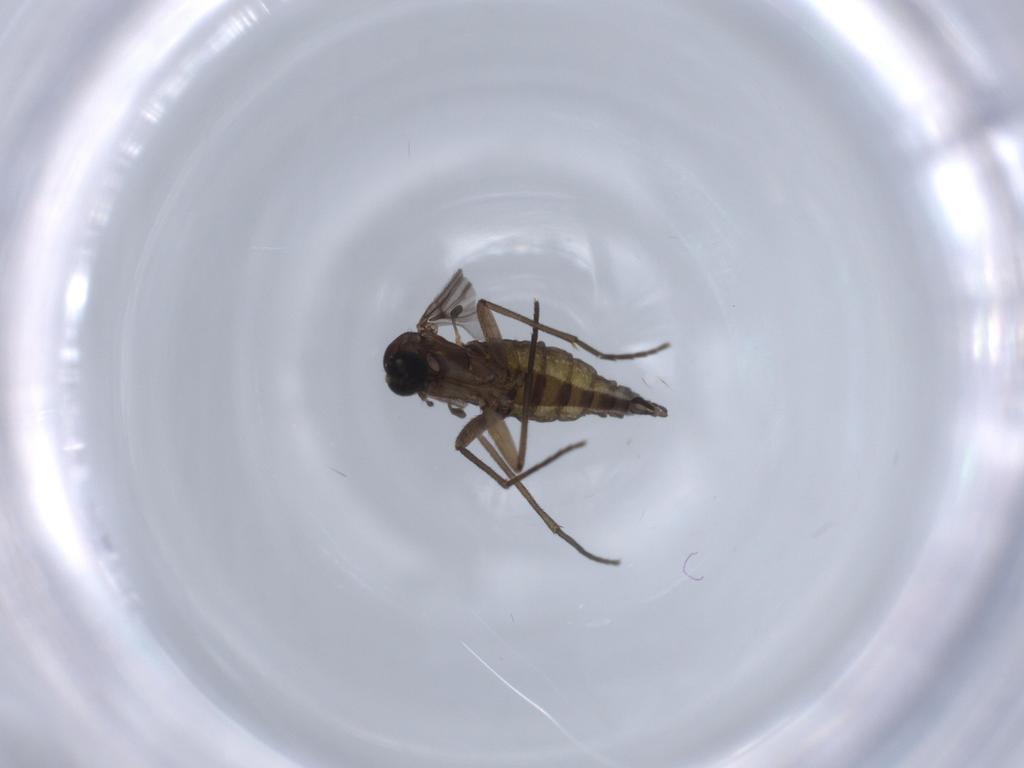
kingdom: Animalia
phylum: Arthropoda
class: Insecta
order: Diptera
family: Sciaridae
